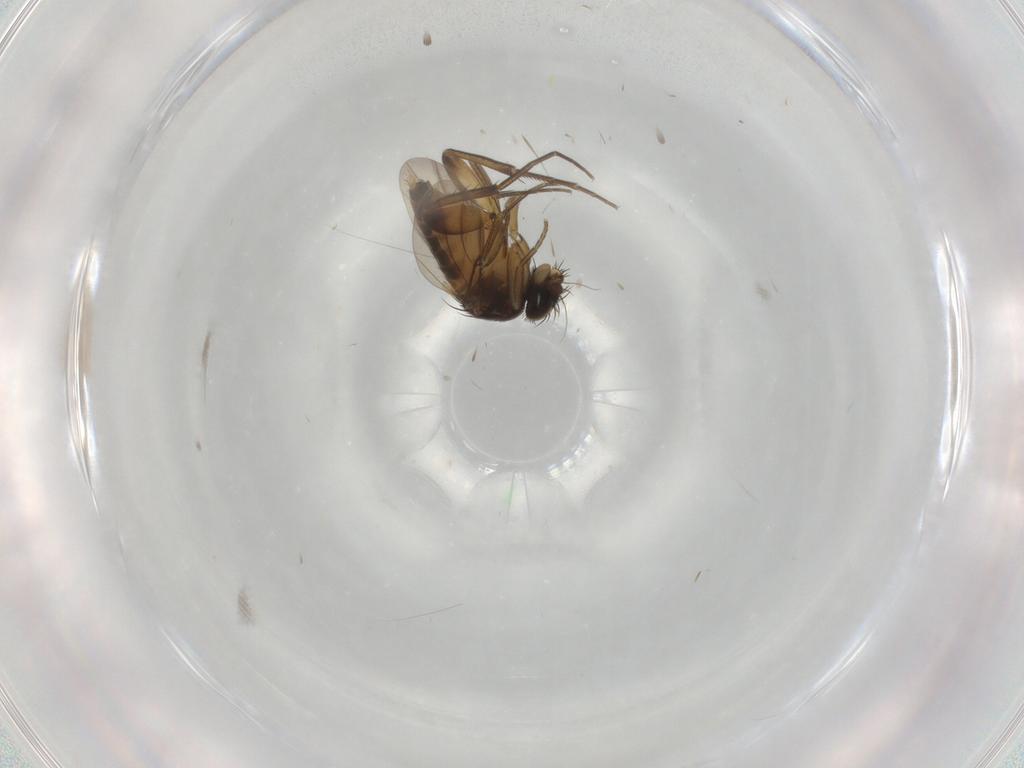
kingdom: Animalia
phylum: Arthropoda
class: Insecta
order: Diptera
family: Phoridae
